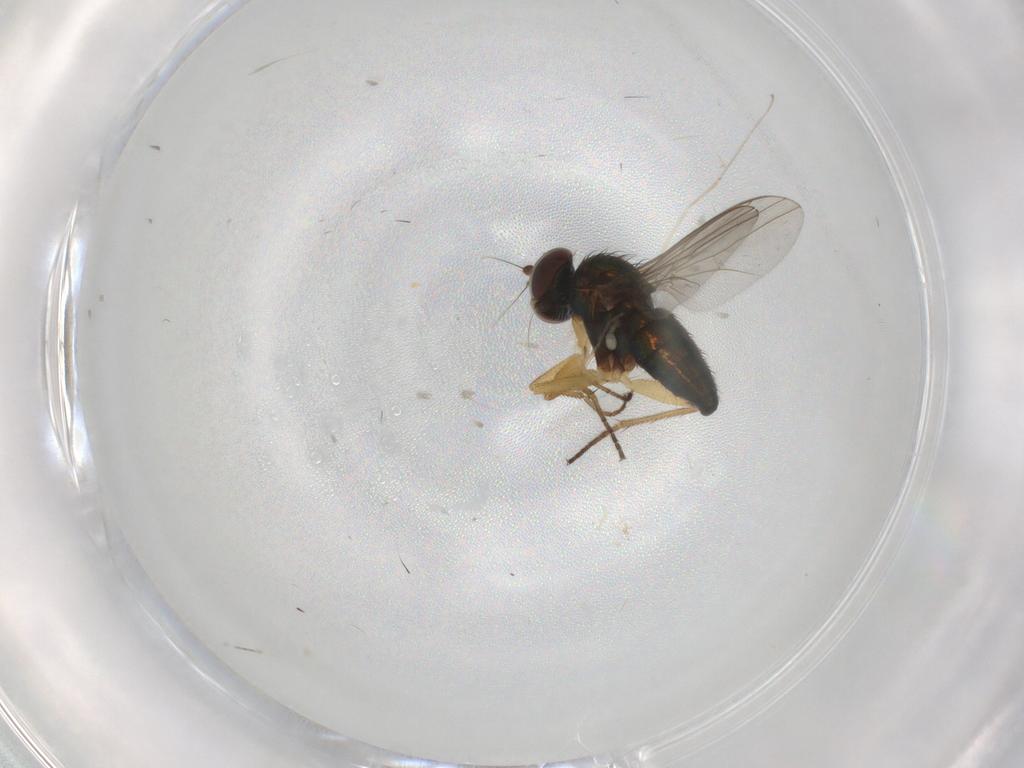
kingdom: Animalia
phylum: Arthropoda
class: Insecta
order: Diptera
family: Cecidomyiidae
